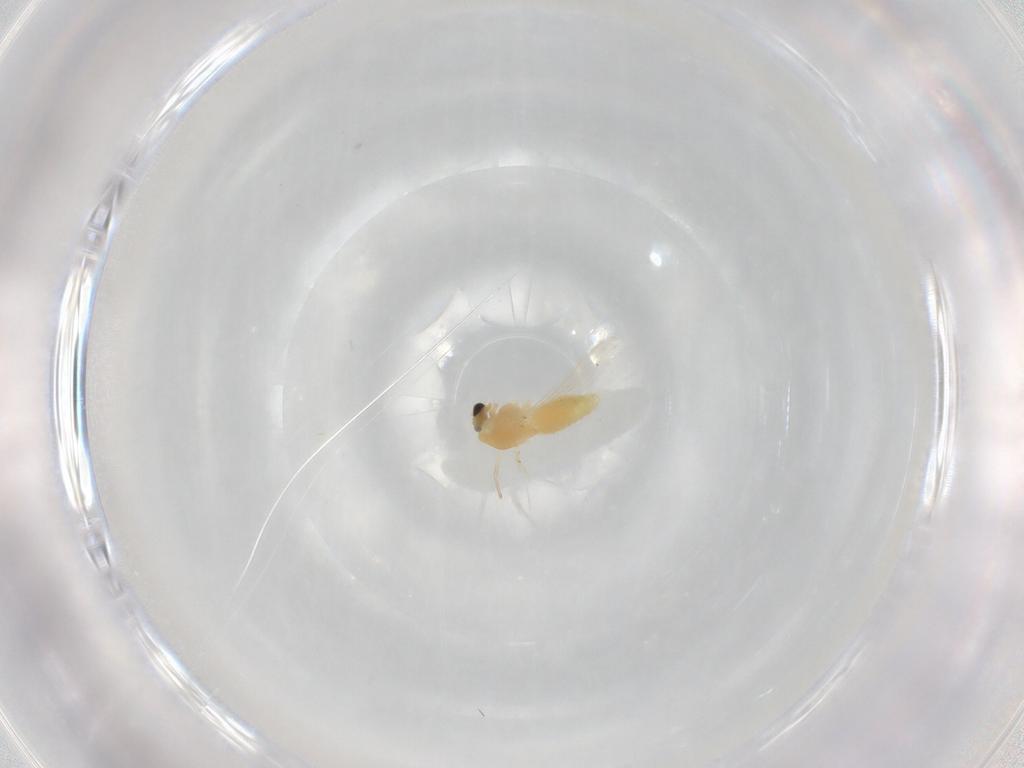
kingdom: Animalia
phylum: Arthropoda
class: Insecta
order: Diptera
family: Chironomidae
